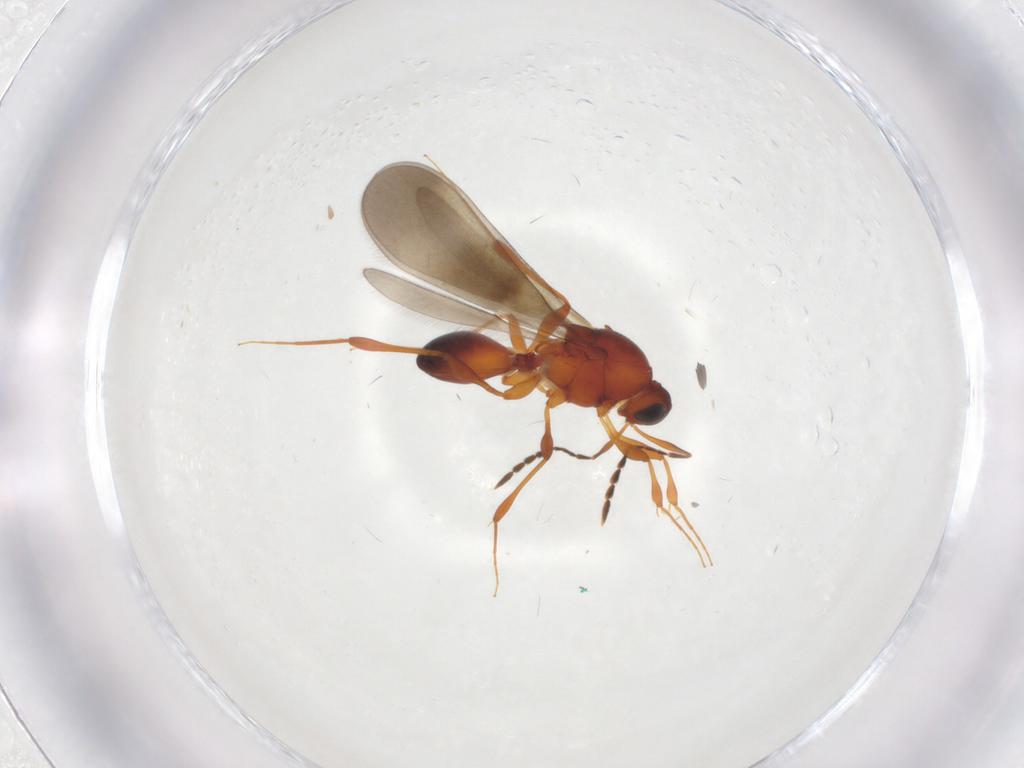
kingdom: Animalia
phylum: Arthropoda
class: Insecta
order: Hymenoptera
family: Platygastridae
